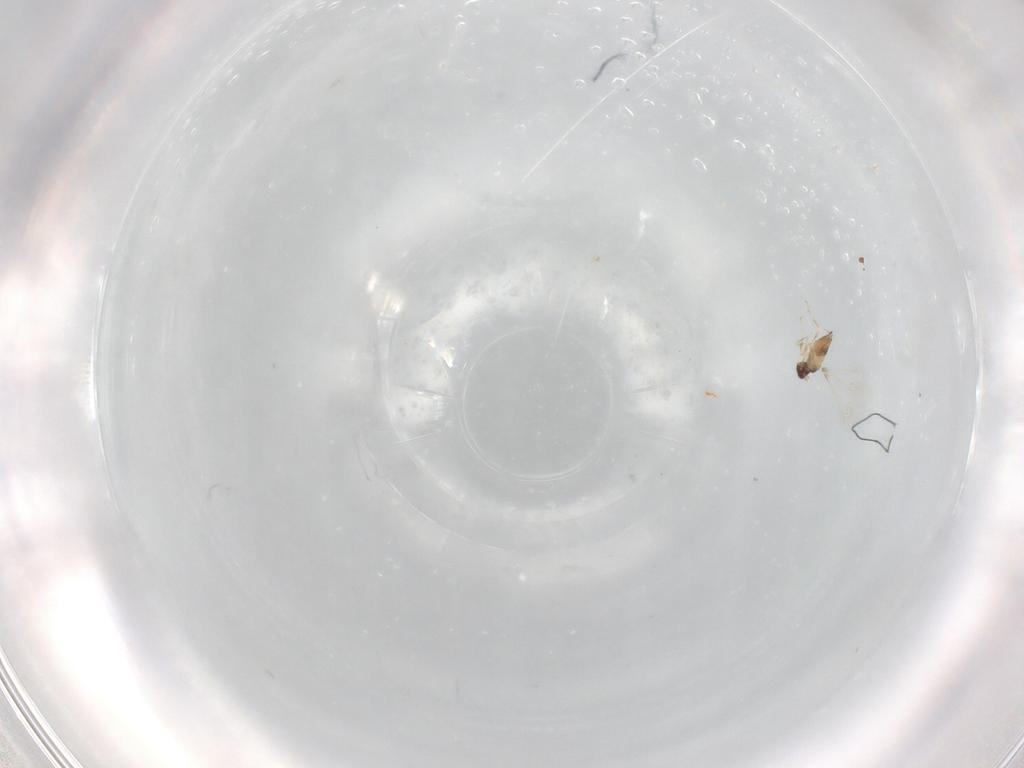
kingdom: Animalia
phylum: Arthropoda
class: Insecta
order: Hymenoptera
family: Mymaridae
